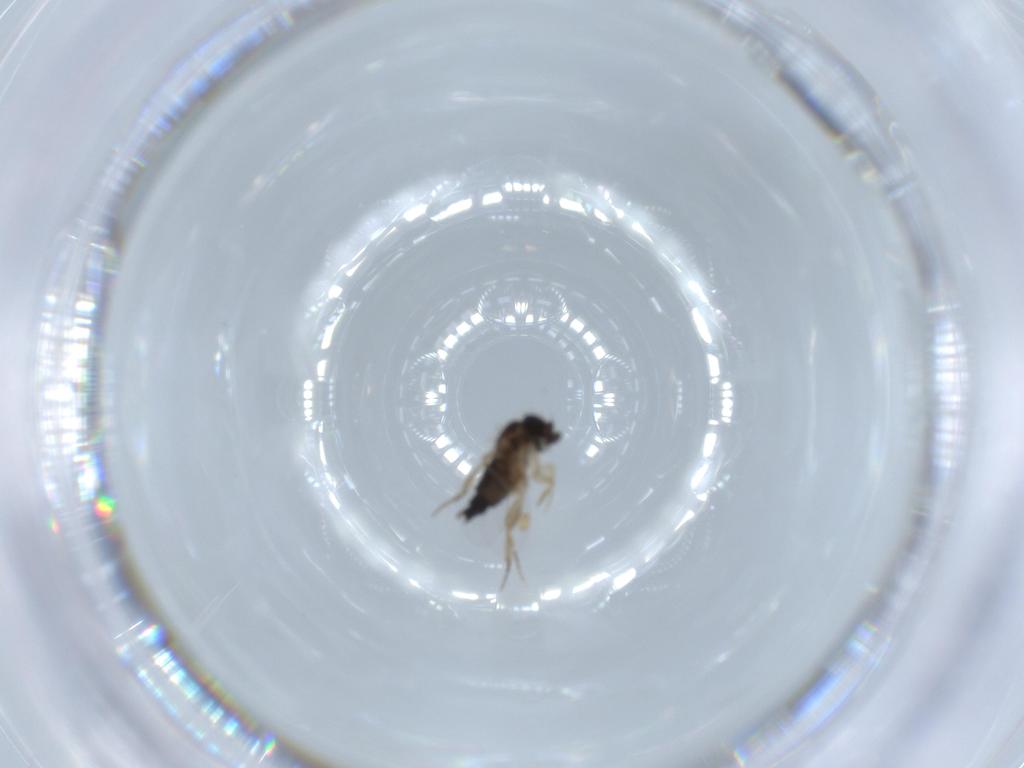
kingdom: Animalia
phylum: Arthropoda
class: Insecta
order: Diptera
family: Phoridae
